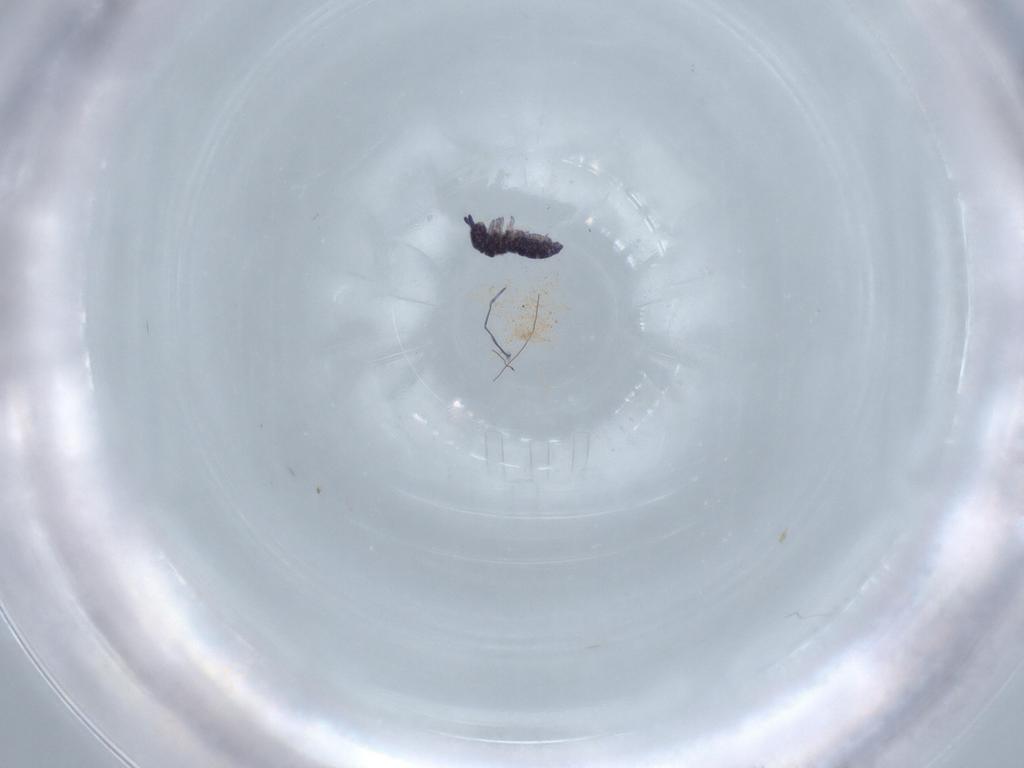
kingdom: Animalia
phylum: Arthropoda
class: Collembola
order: Poduromorpha
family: Brachystomellidae
